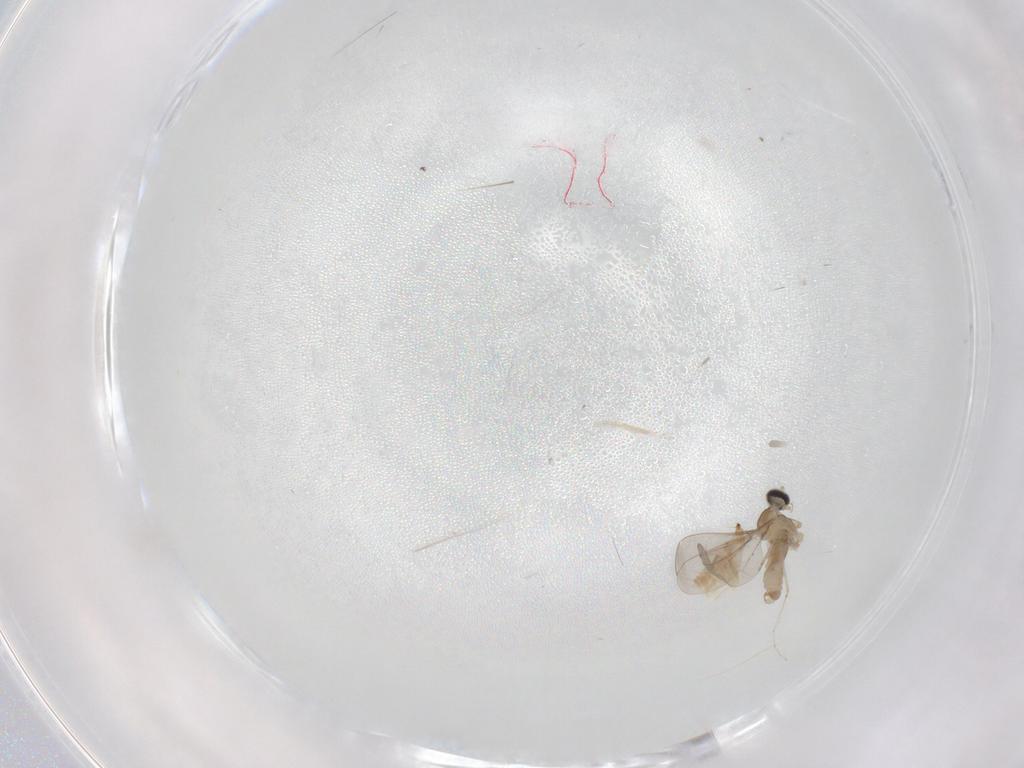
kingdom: Animalia
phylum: Arthropoda
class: Insecta
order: Diptera
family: Cecidomyiidae
